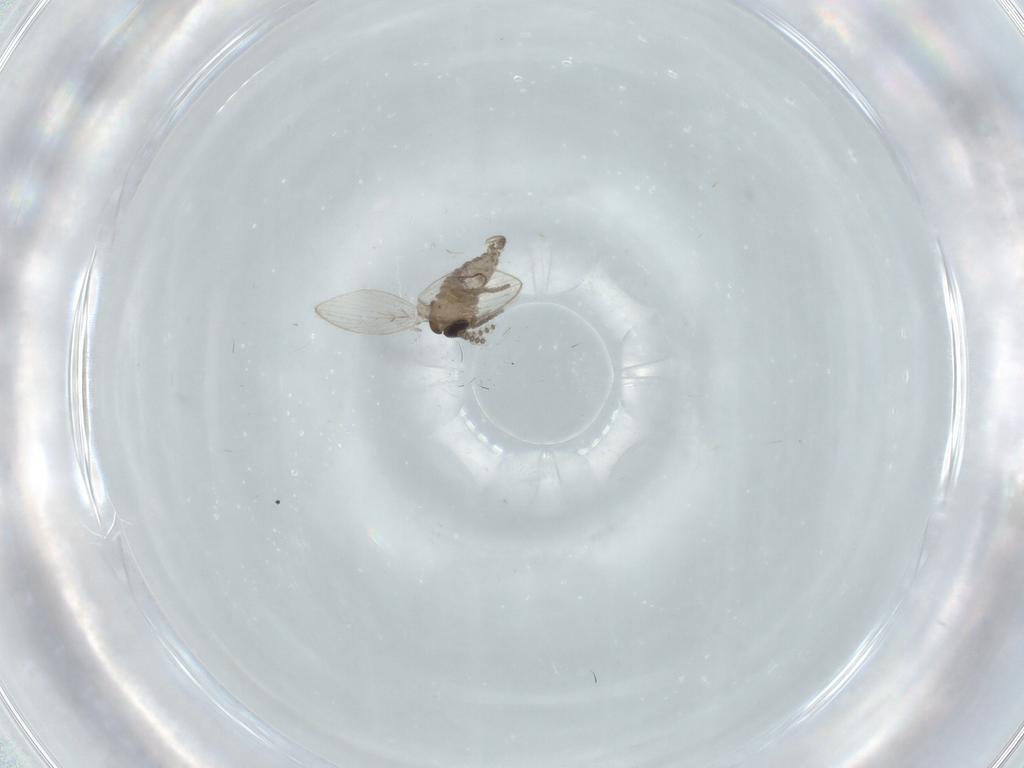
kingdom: Animalia
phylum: Arthropoda
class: Insecta
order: Diptera
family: Psychodidae
